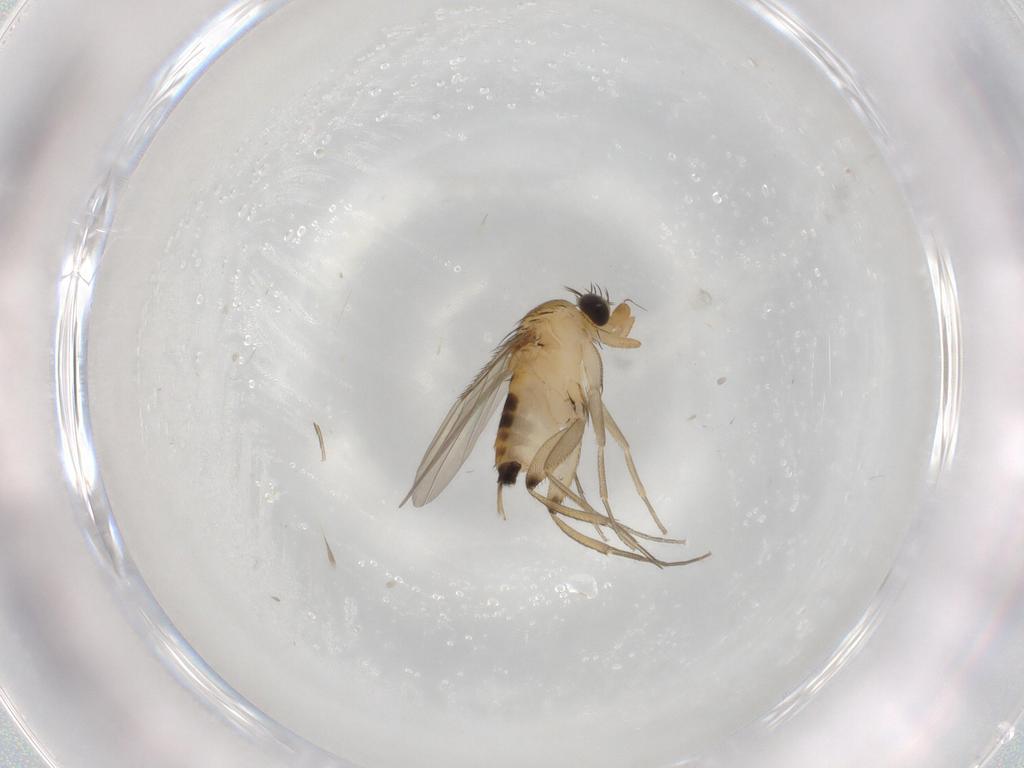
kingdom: Animalia
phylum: Arthropoda
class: Insecta
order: Diptera
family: Phoridae
